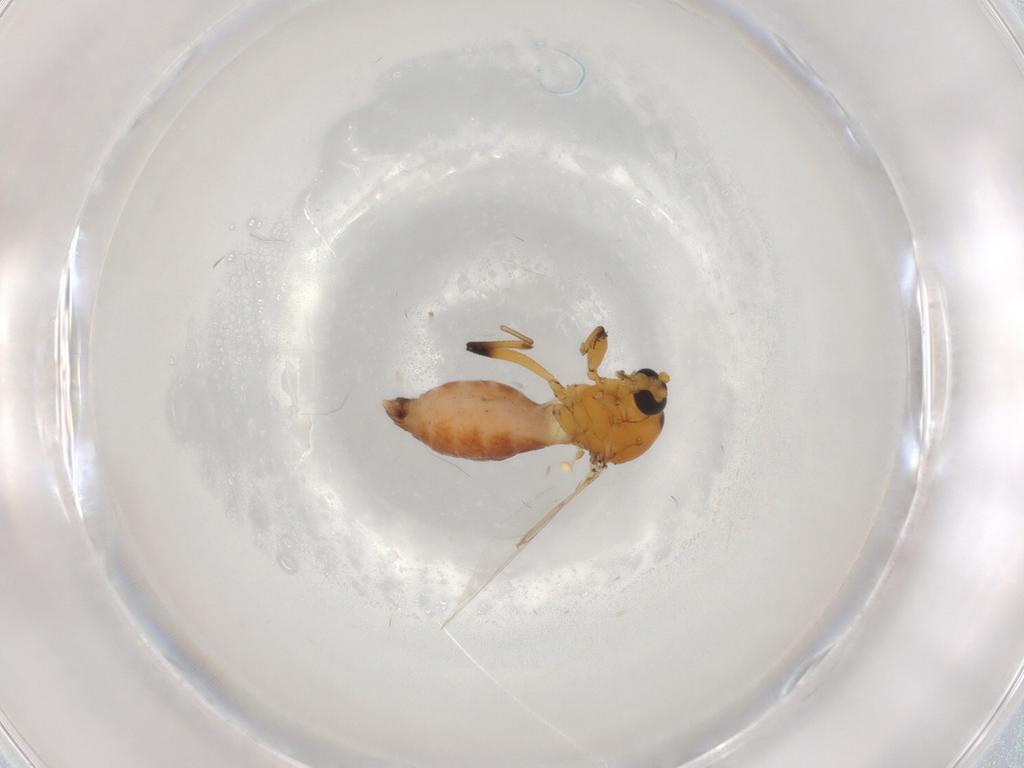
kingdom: Animalia
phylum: Arthropoda
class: Insecta
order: Diptera
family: Ceratopogonidae
